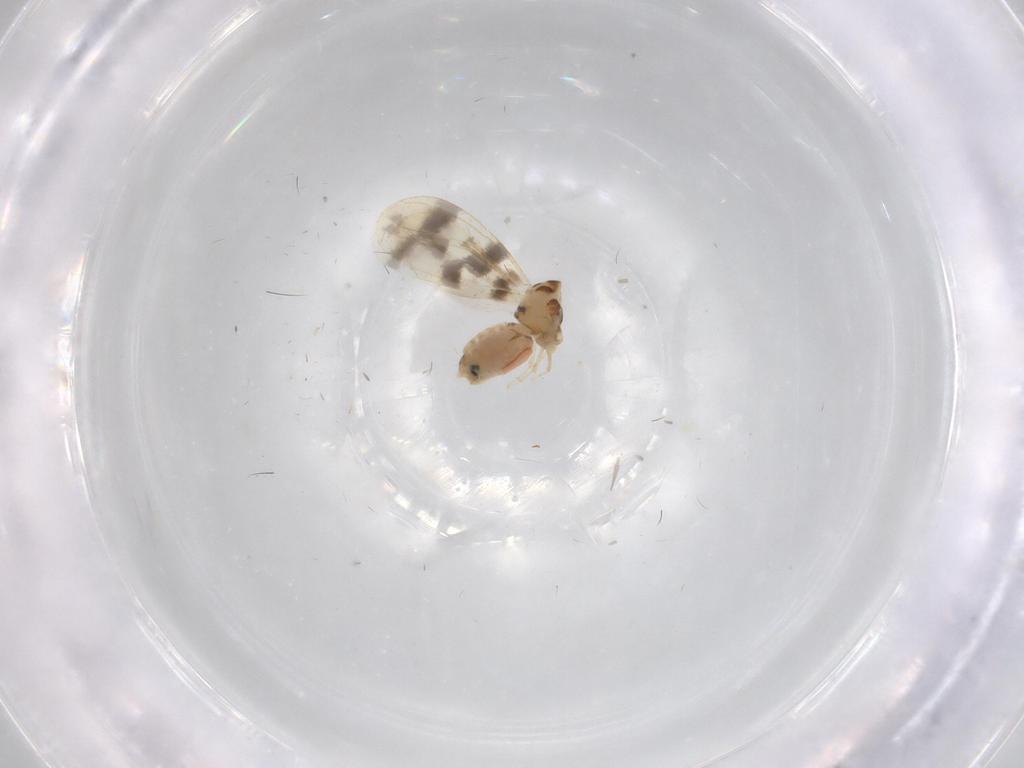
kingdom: Animalia
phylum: Arthropoda
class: Insecta
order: Hemiptera
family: Aleyrodidae
